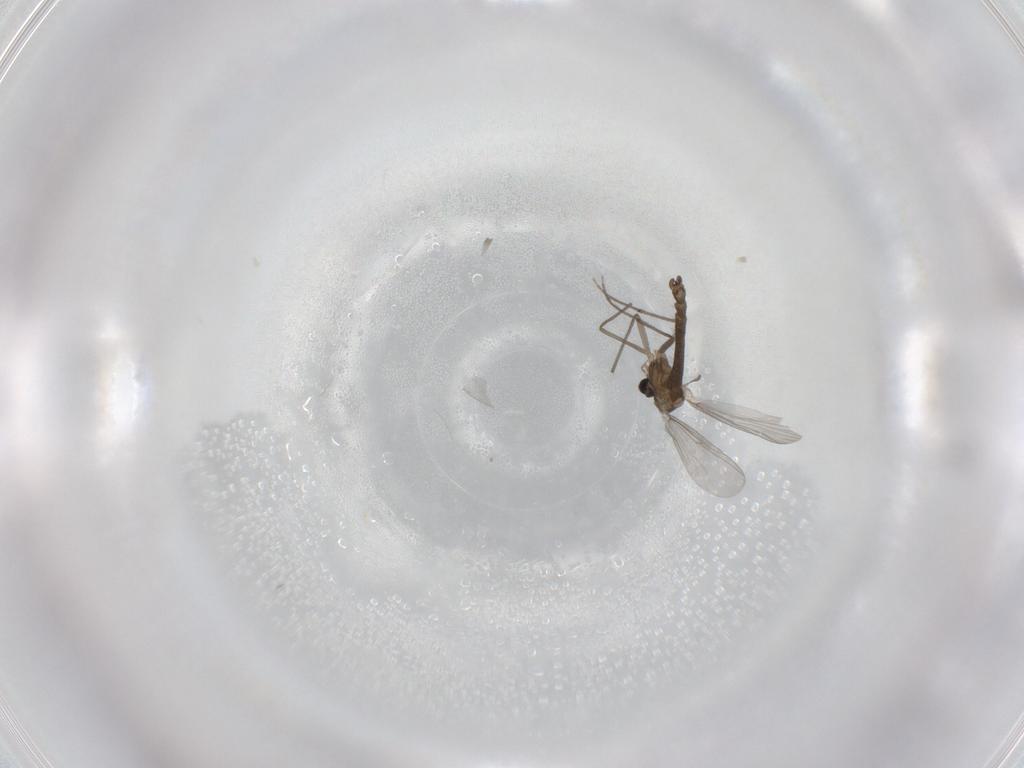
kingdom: Animalia
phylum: Arthropoda
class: Insecta
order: Diptera
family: Chironomidae
